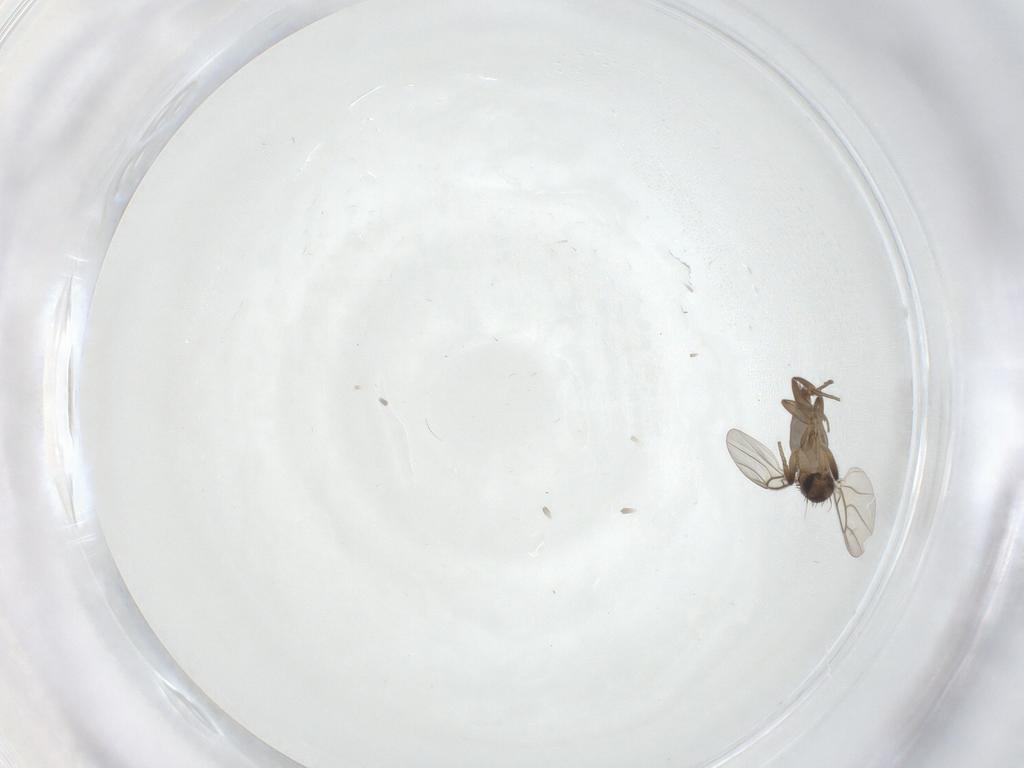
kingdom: Animalia
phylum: Arthropoda
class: Insecta
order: Diptera
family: Phoridae
